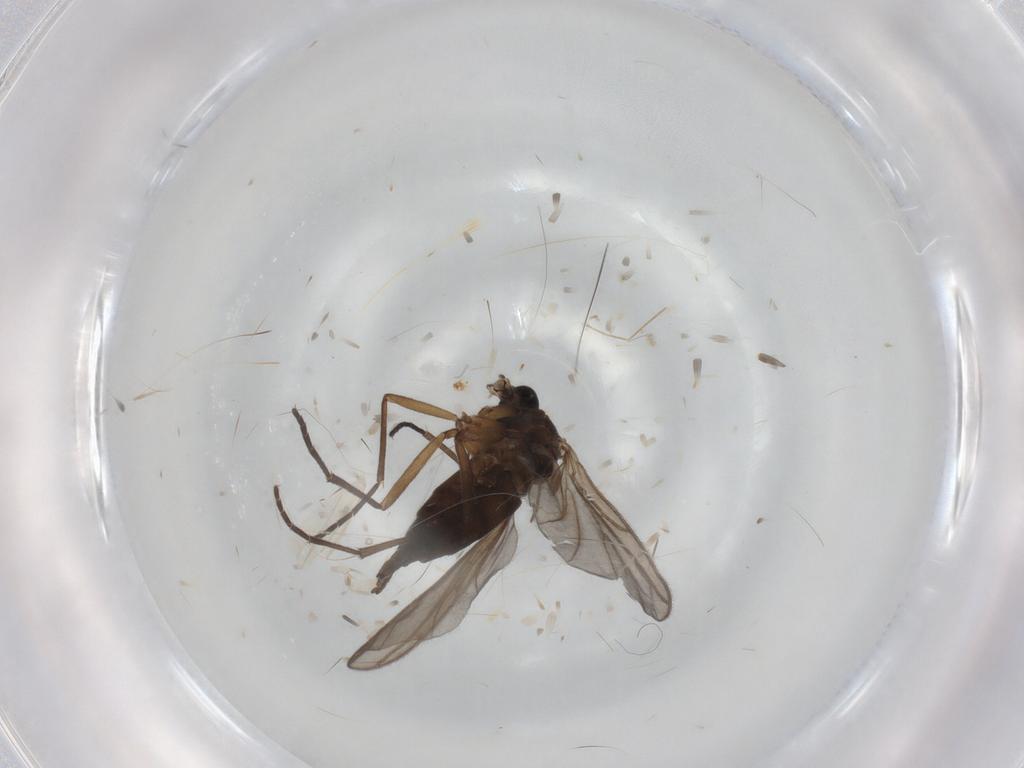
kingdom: Animalia
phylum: Arthropoda
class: Insecta
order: Diptera
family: Sciaridae
